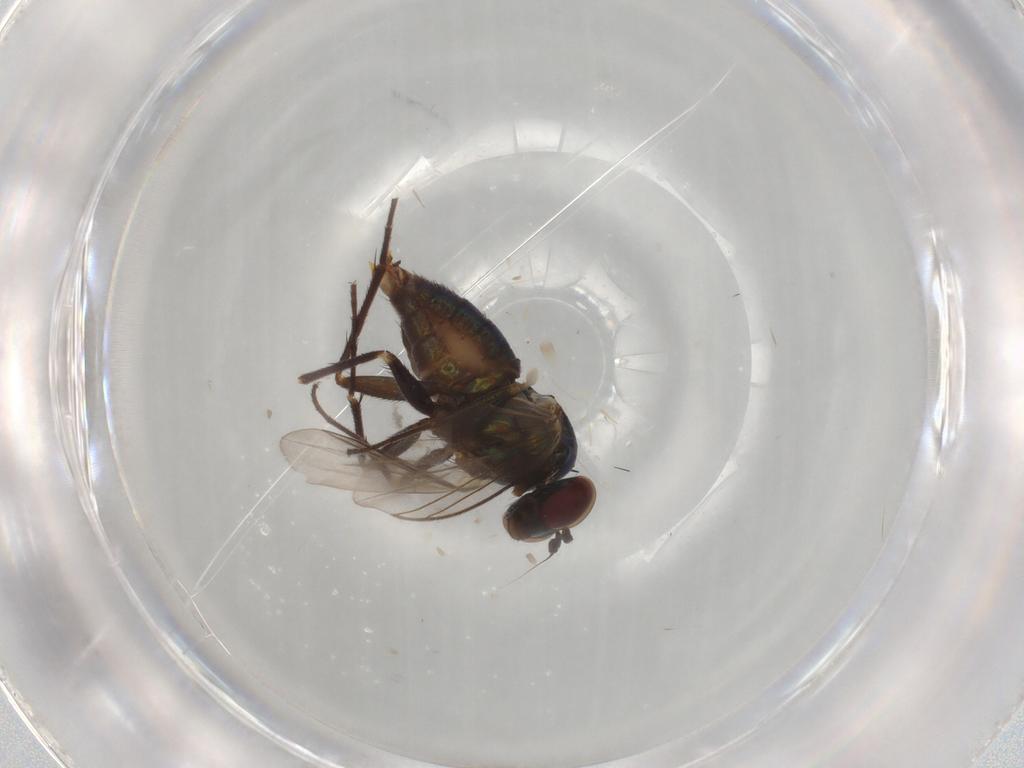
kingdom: Animalia
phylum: Arthropoda
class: Insecta
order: Diptera
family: Dolichopodidae
